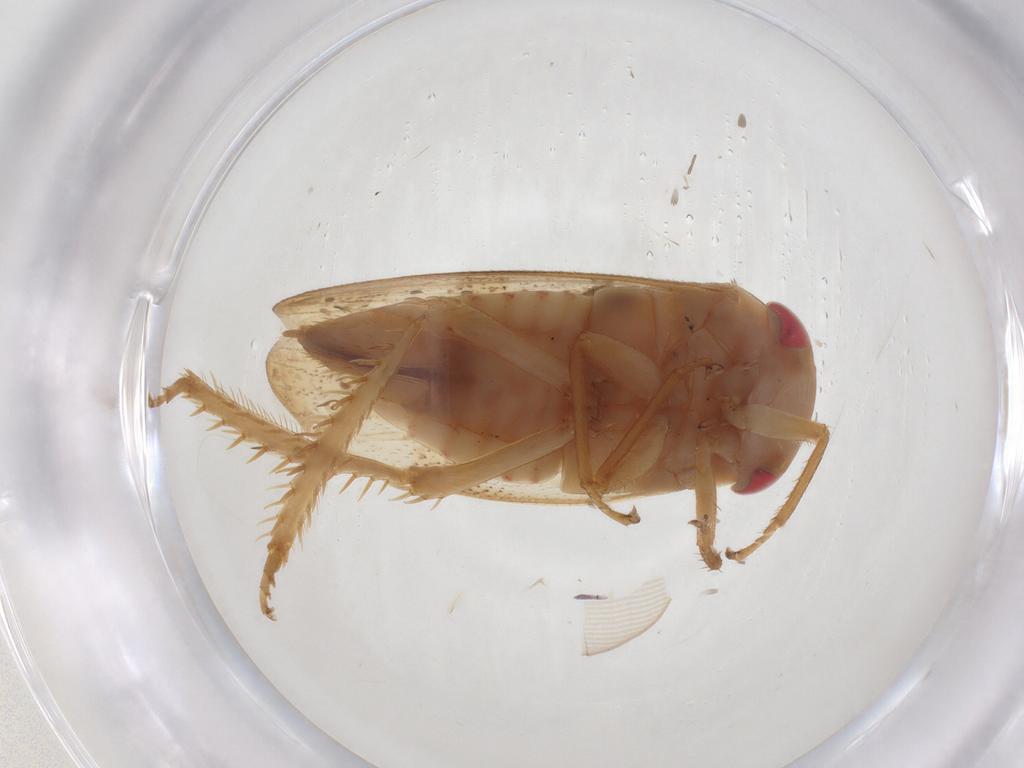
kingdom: Animalia
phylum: Arthropoda
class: Insecta
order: Hemiptera
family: Cicadellidae
